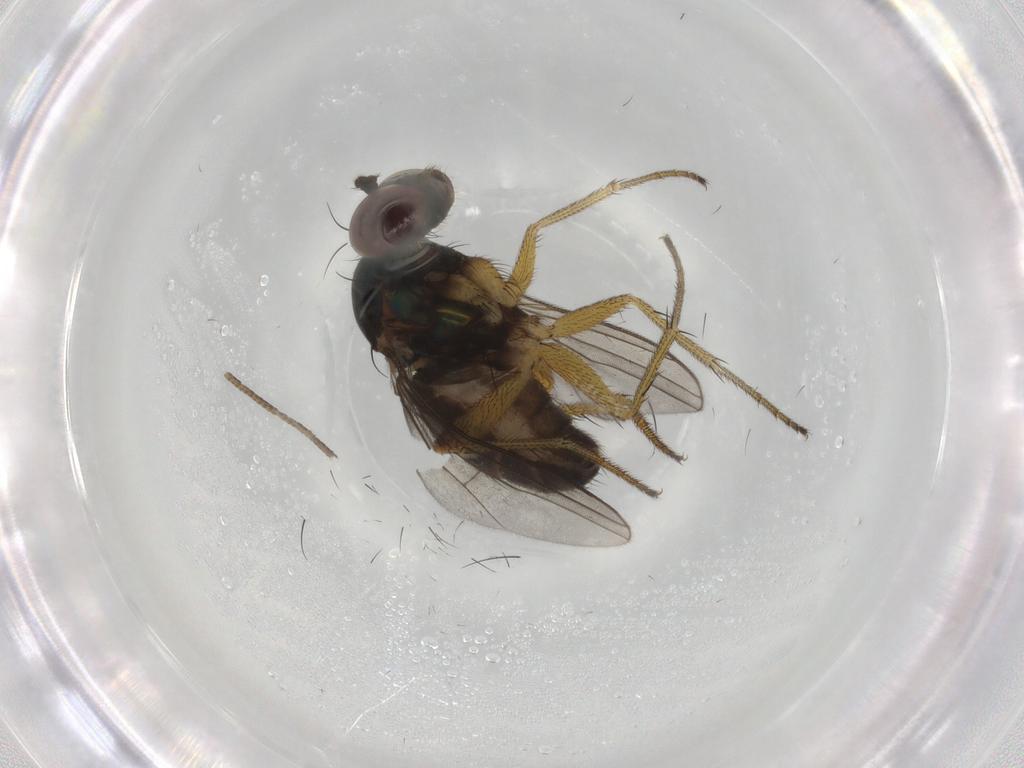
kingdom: Animalia
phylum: Arthropoda
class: Insecta
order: Diptera
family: Dolichopodidae
